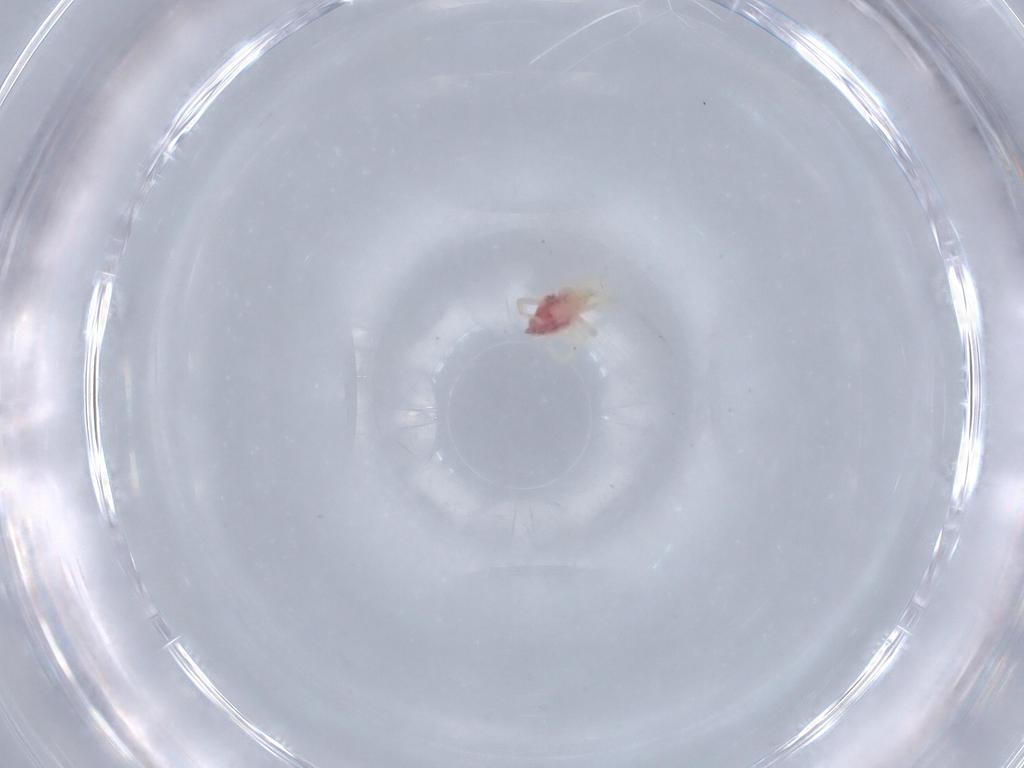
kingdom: Animalia
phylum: Arthropoda
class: Arachnida
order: Trombidiformes
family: Erythraeidae
